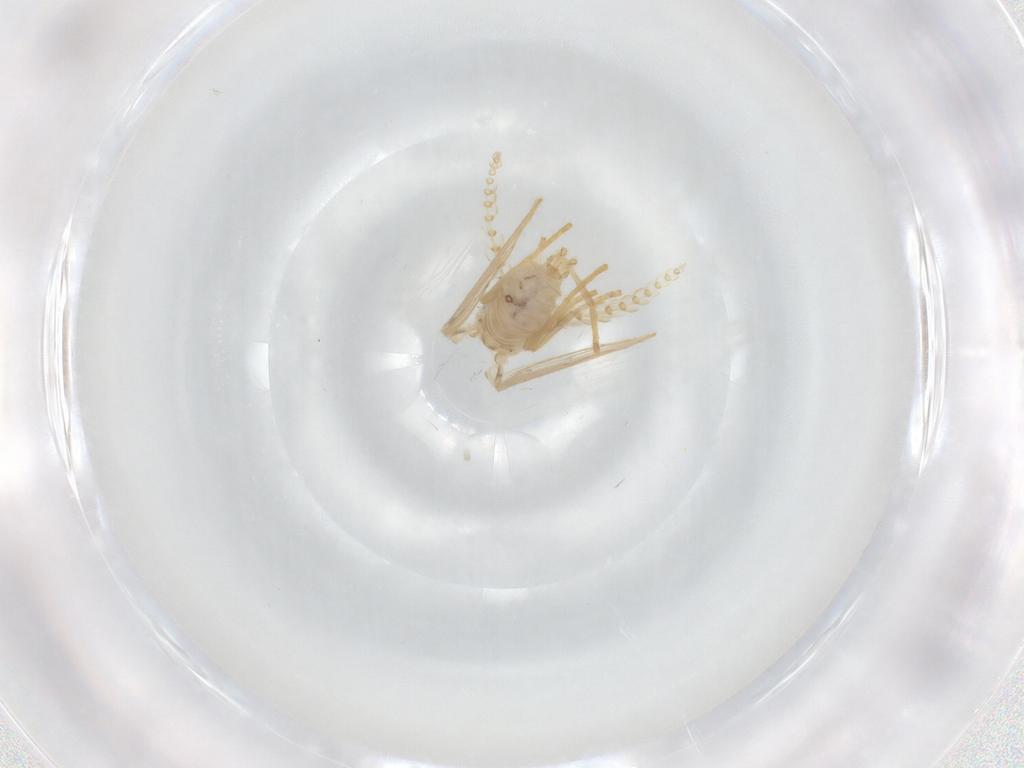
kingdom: Animalia
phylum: Arthropoda
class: Insecta
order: Diptera
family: Psychodidae
